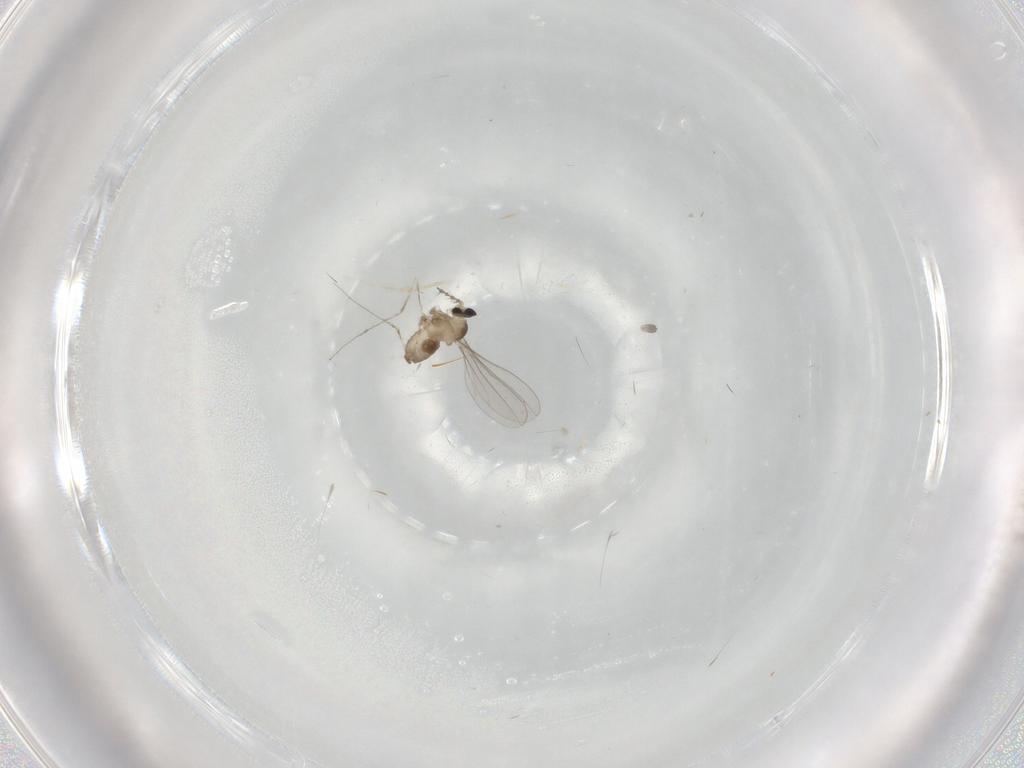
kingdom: Animalia
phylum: Arthropoda
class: Insecta
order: Diptera
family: Cecidomyiidae
